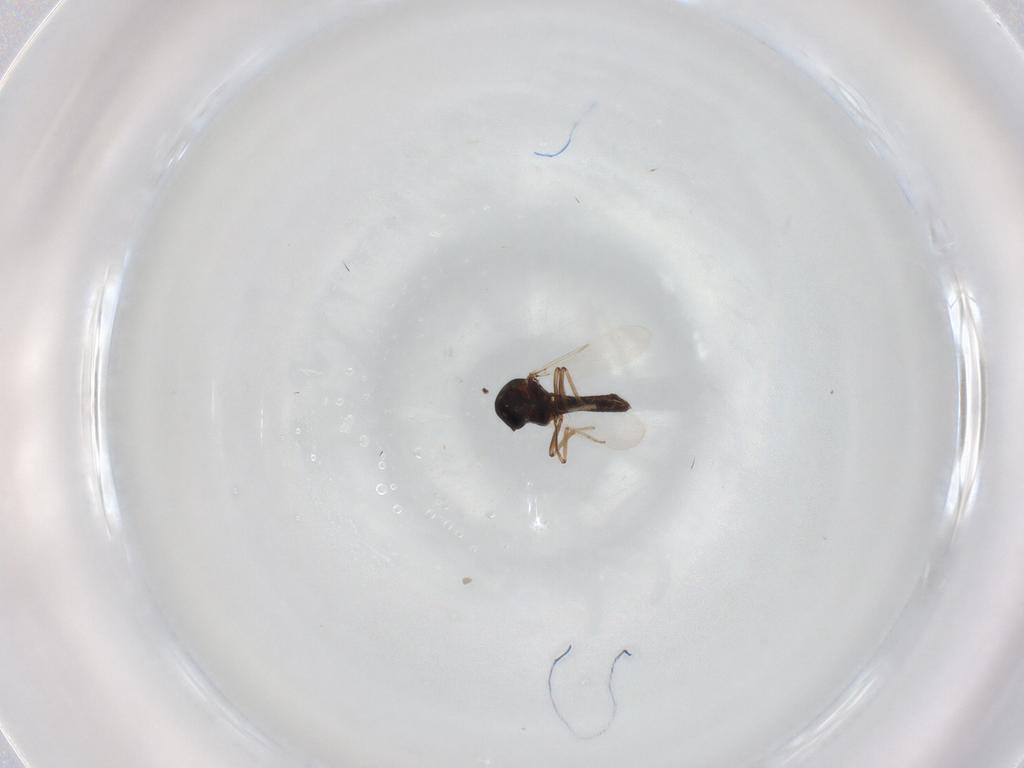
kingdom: Animalia
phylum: Arthropoda
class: Insecta
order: Diptera
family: Ceratopogonidae
